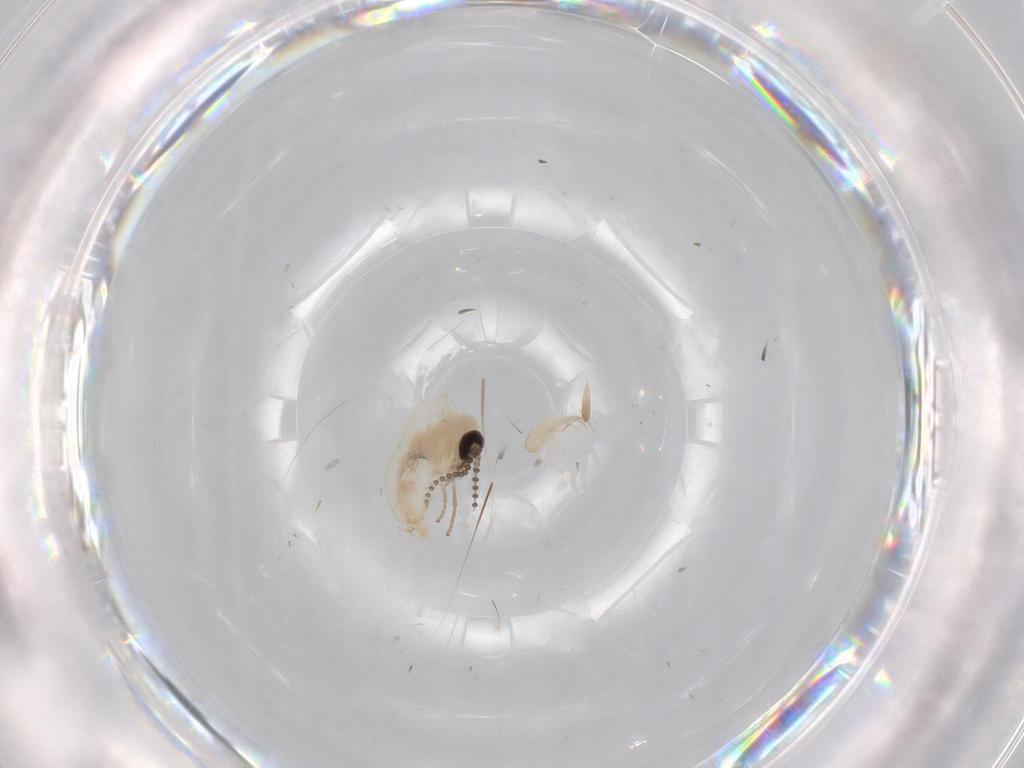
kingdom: Animalia
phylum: Arthropoda
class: Insecta
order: Diptera
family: Psychodidae
